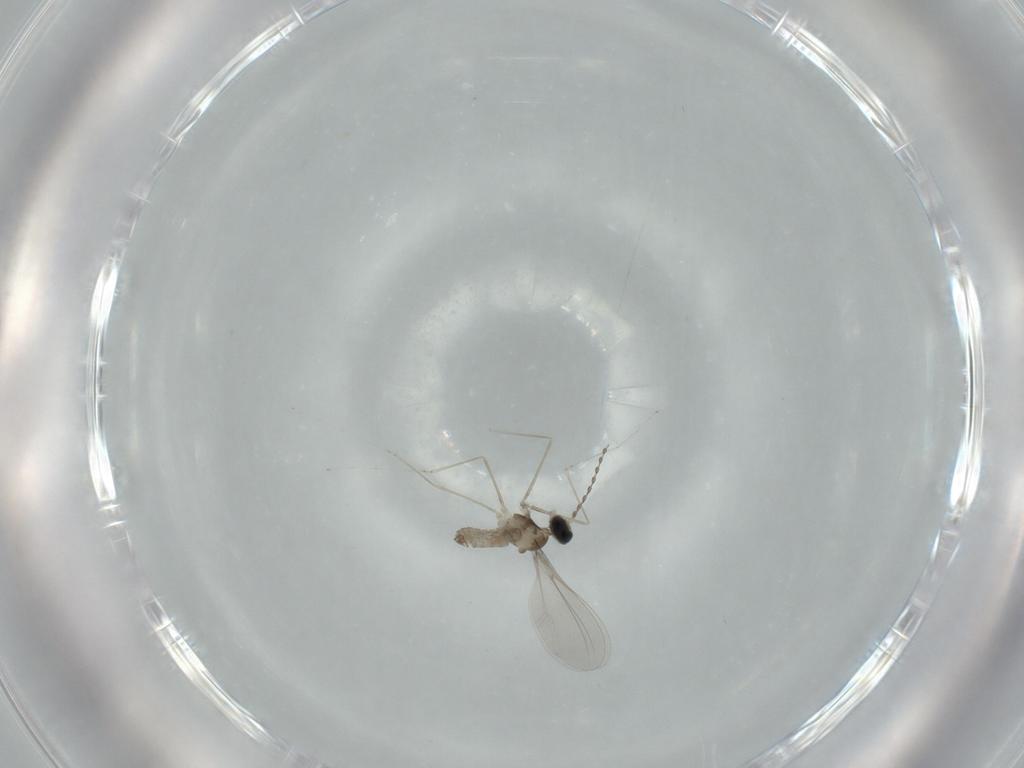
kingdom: Animalia
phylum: Arthropoda
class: Insecta
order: Diptera
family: Cecidomyiidae
